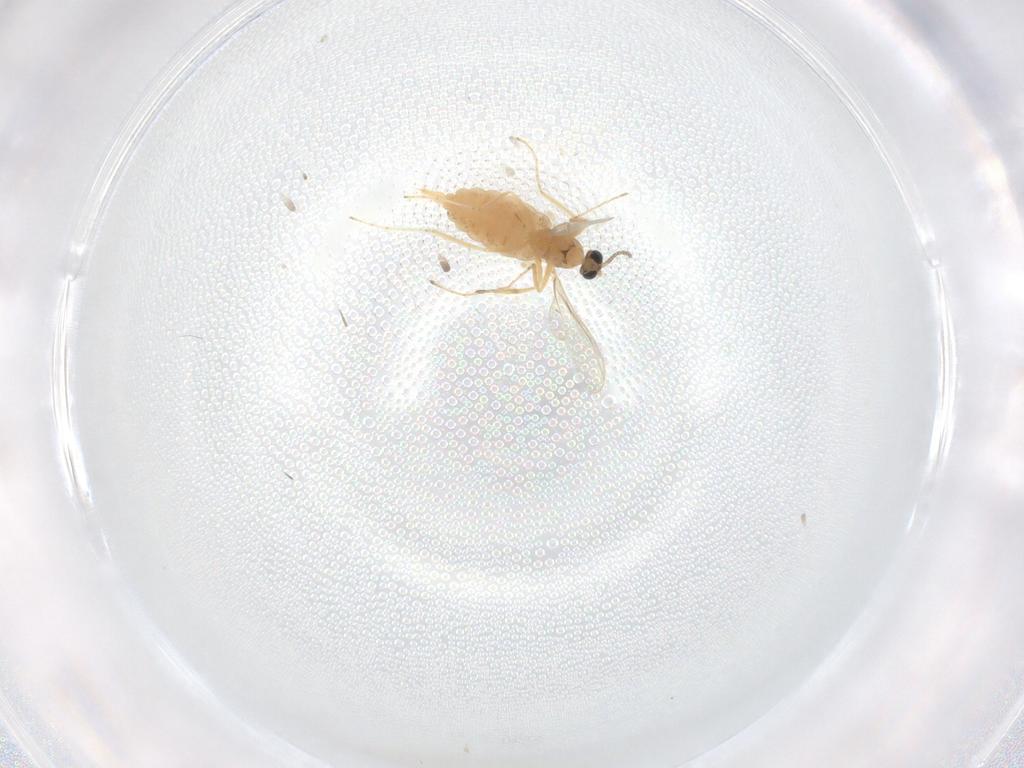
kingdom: Animalia
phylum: Arthropoda
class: Insecta
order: Diptera
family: Cecidomyiidae
